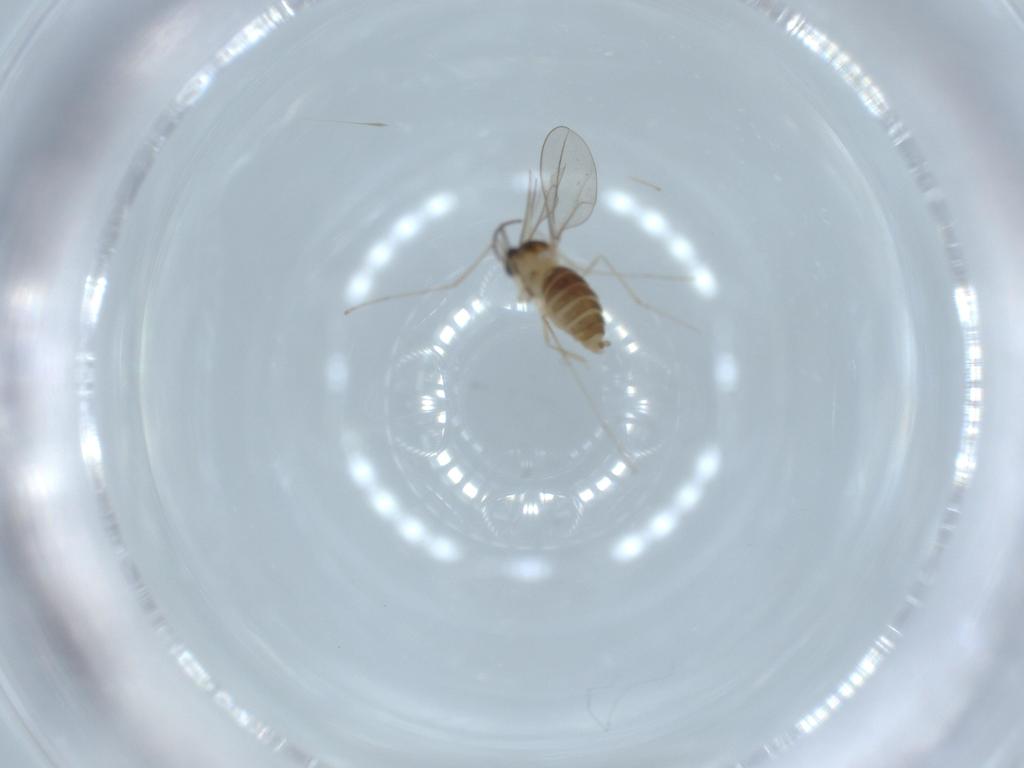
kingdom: Animalia
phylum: Arthropoda
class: Insecta
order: Diptera
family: Cecidomyiidae
